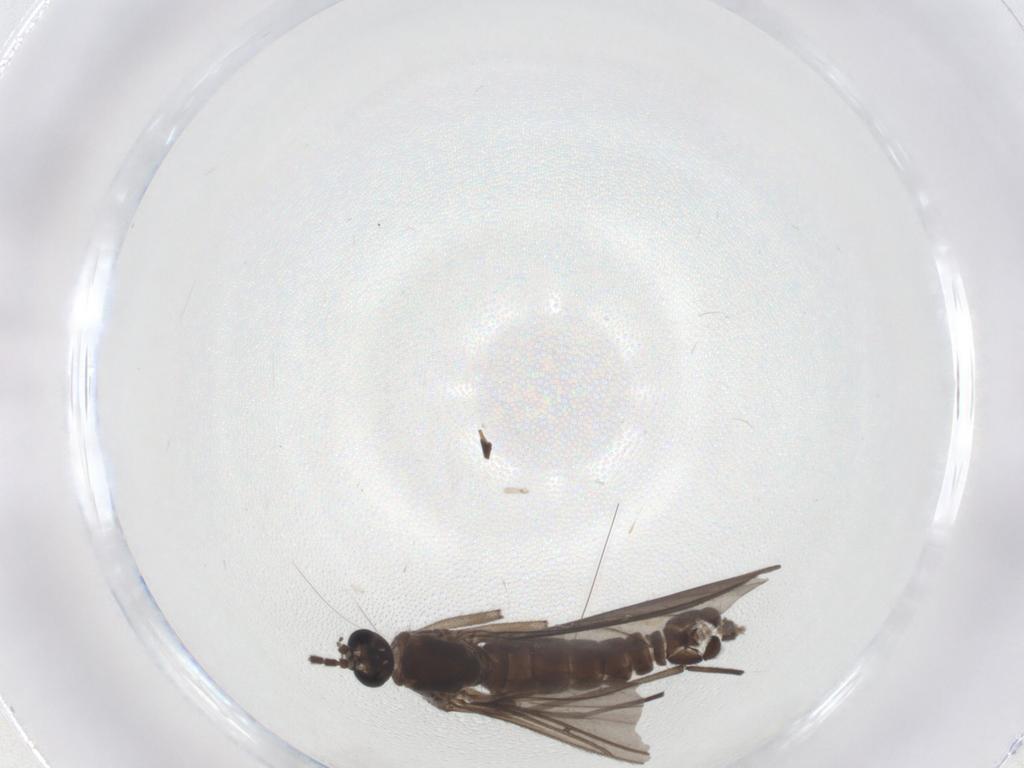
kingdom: Animalia
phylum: Arthropoda
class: Insecta
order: Diptera
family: Sciaridae
